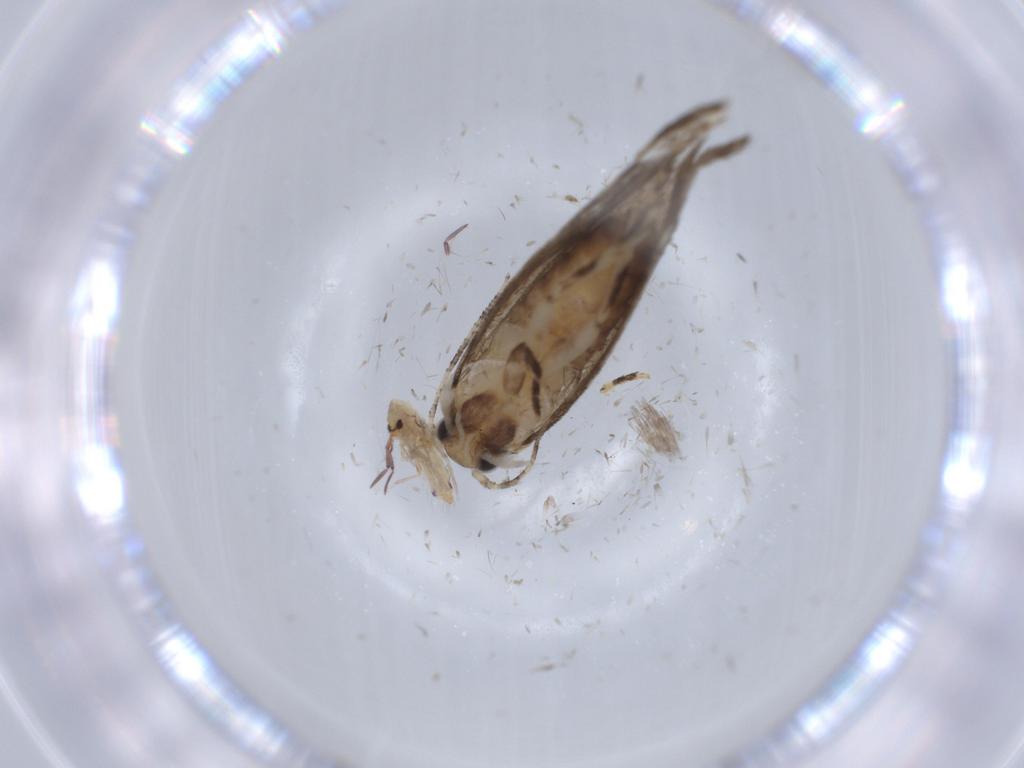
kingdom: Animalia
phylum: Arthropoda
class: Insecta
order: Lepidoptera
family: Tineidae
